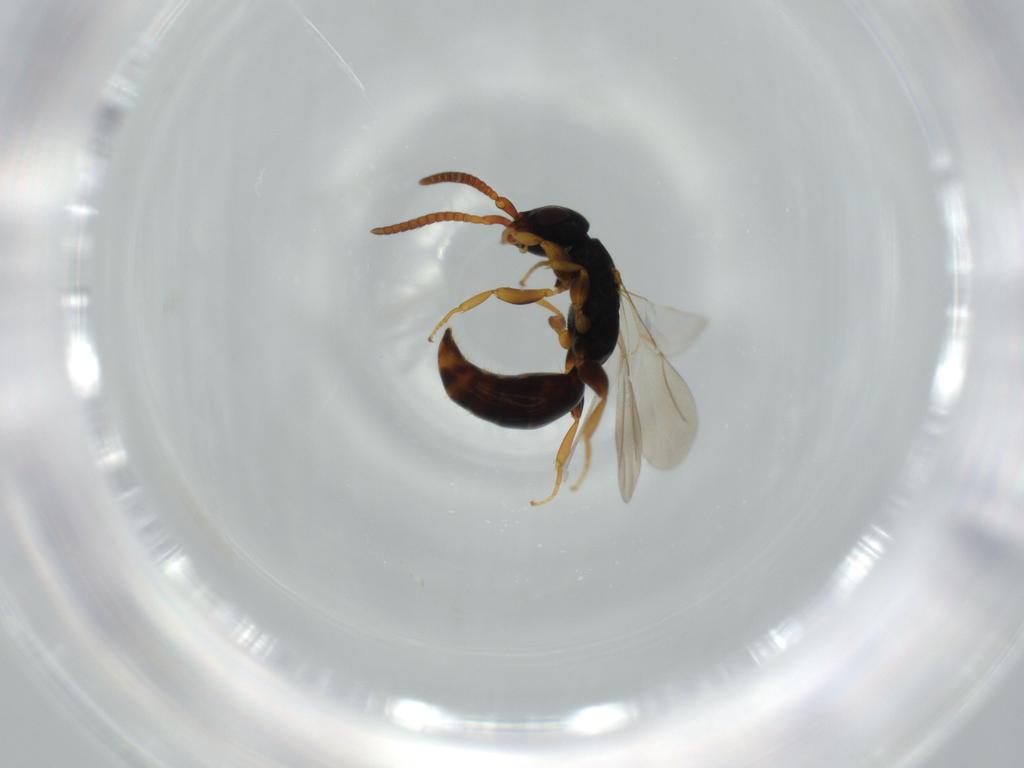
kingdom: Animalia
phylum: Arthropoda
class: Insecta
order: Hymenoptera
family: Bethylidae
